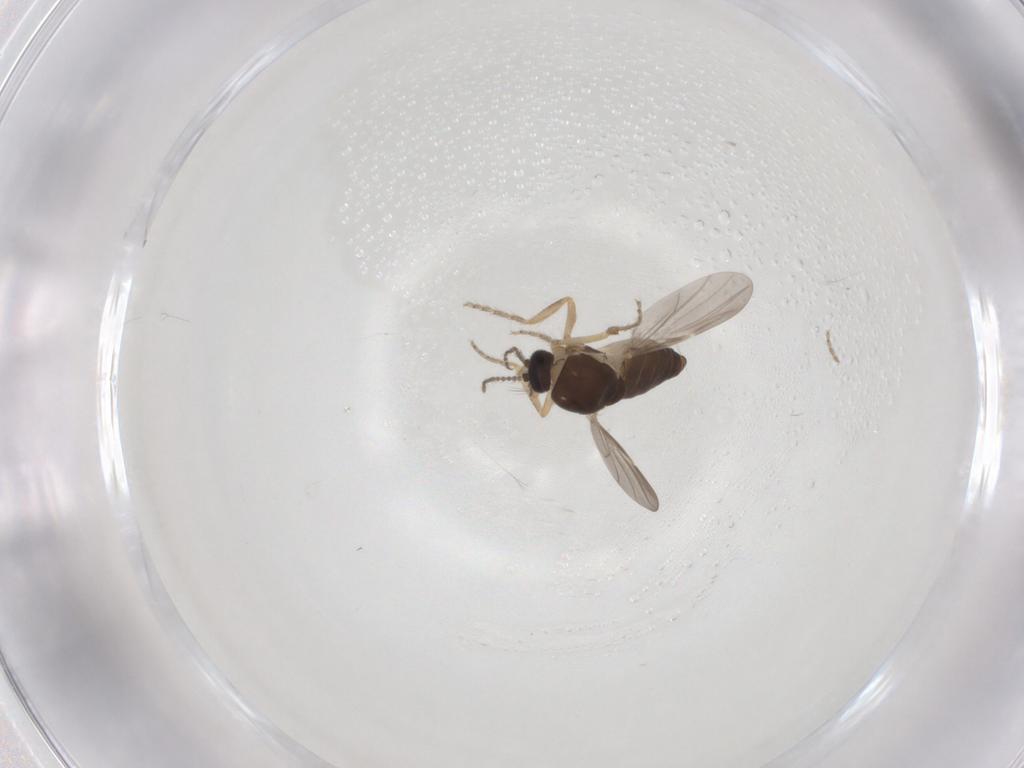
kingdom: Animalia
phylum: Arthropoda
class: Insecta
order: Diptera
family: Ceratopogonidae
